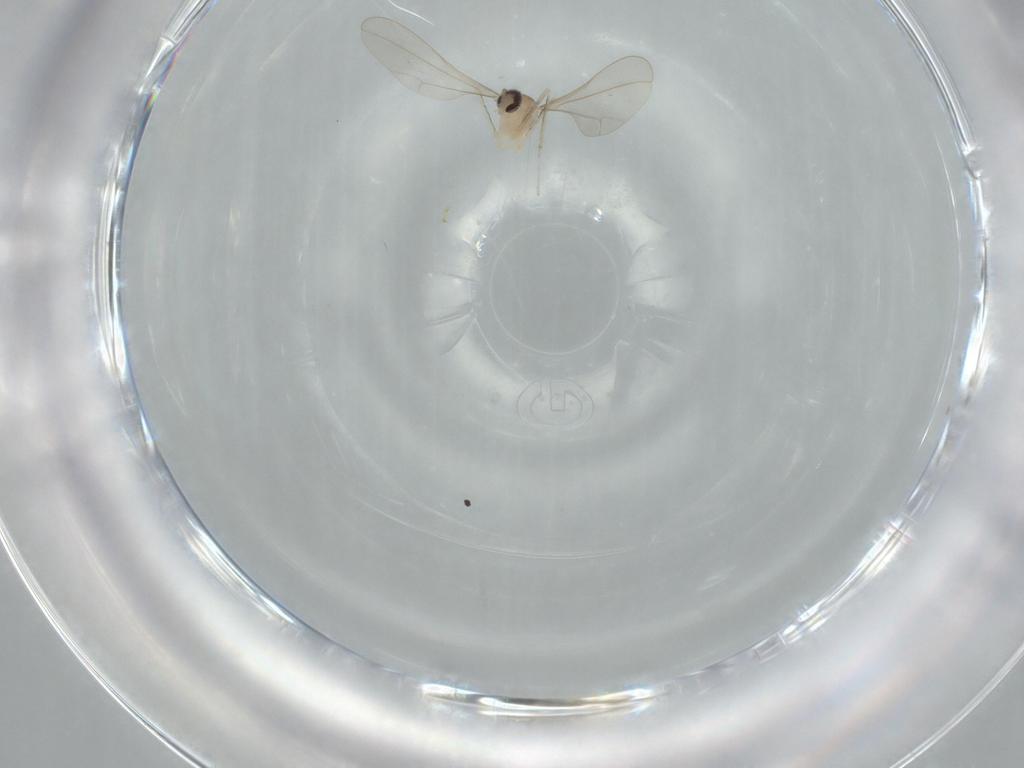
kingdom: Animalia
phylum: Arthropoda
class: Insecta
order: Diptera
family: Cecidomyiidae
